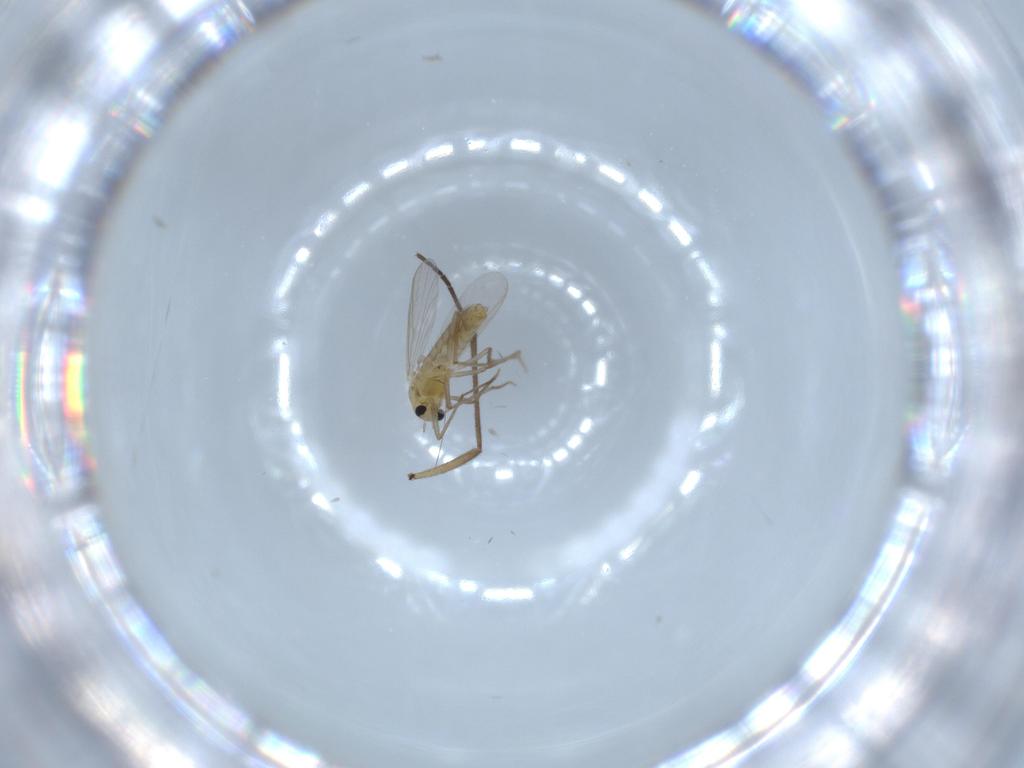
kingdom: Animalia
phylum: Arthropoda
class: Insecta
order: Diptera
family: Chironomidae
